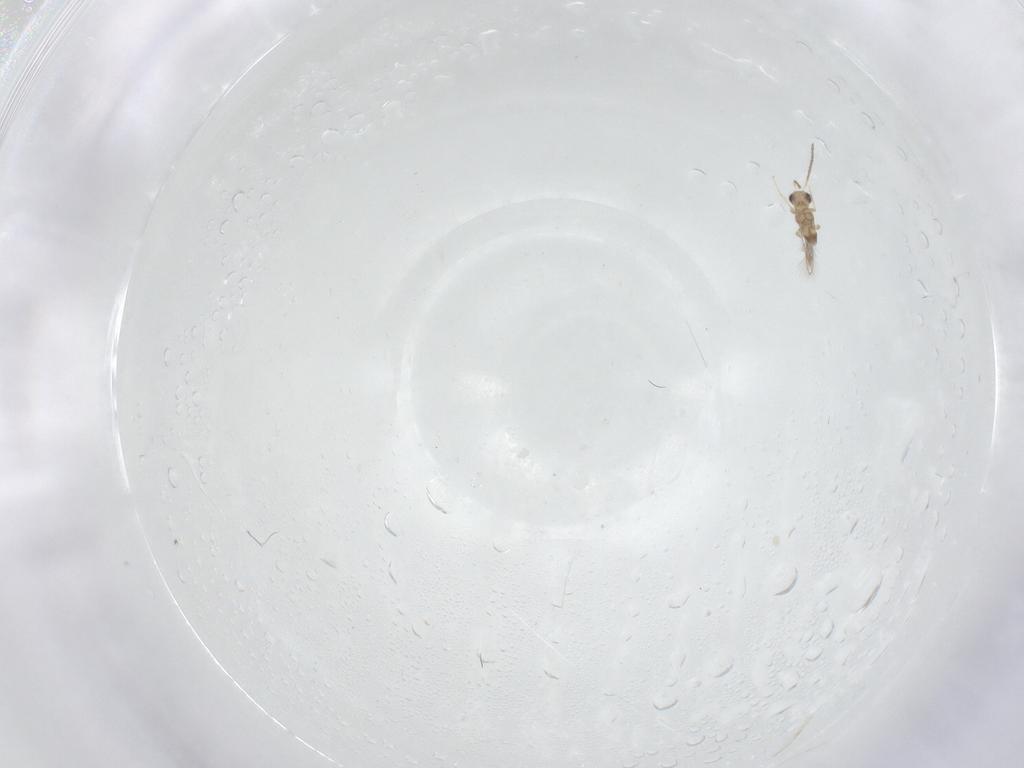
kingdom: Animalia
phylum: Arthropoda
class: Insecta
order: Hymenoptera
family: Mymaridae
